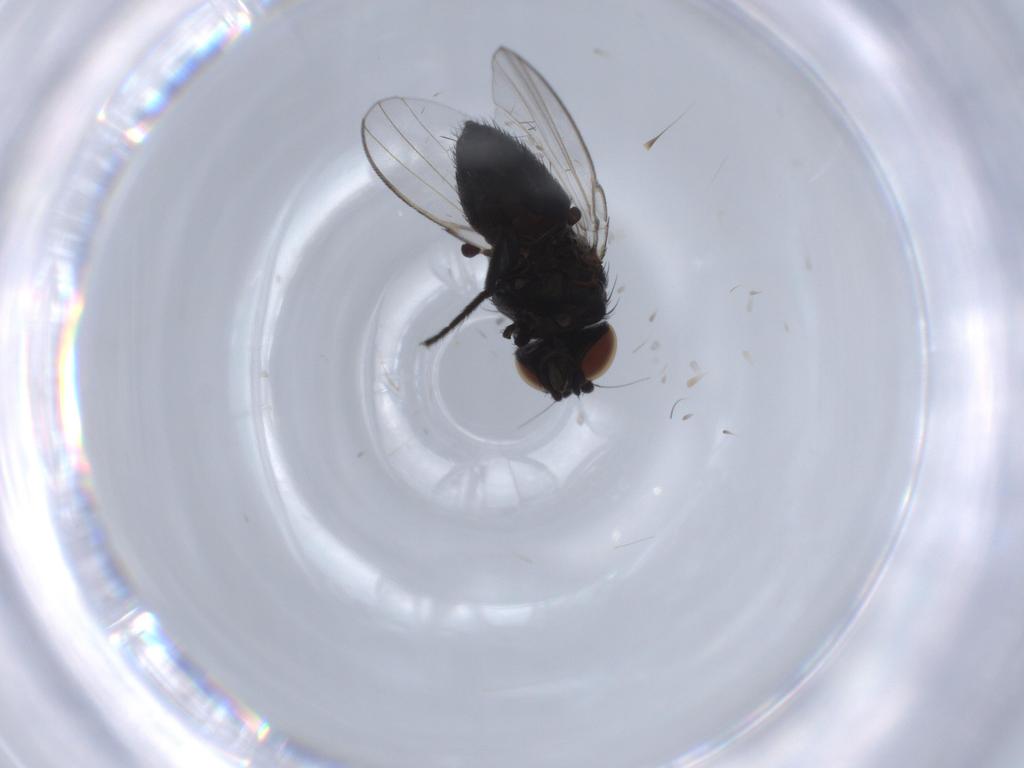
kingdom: Animalia
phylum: Arthropoda
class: Insecta
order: Diptera
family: Milichiidae
